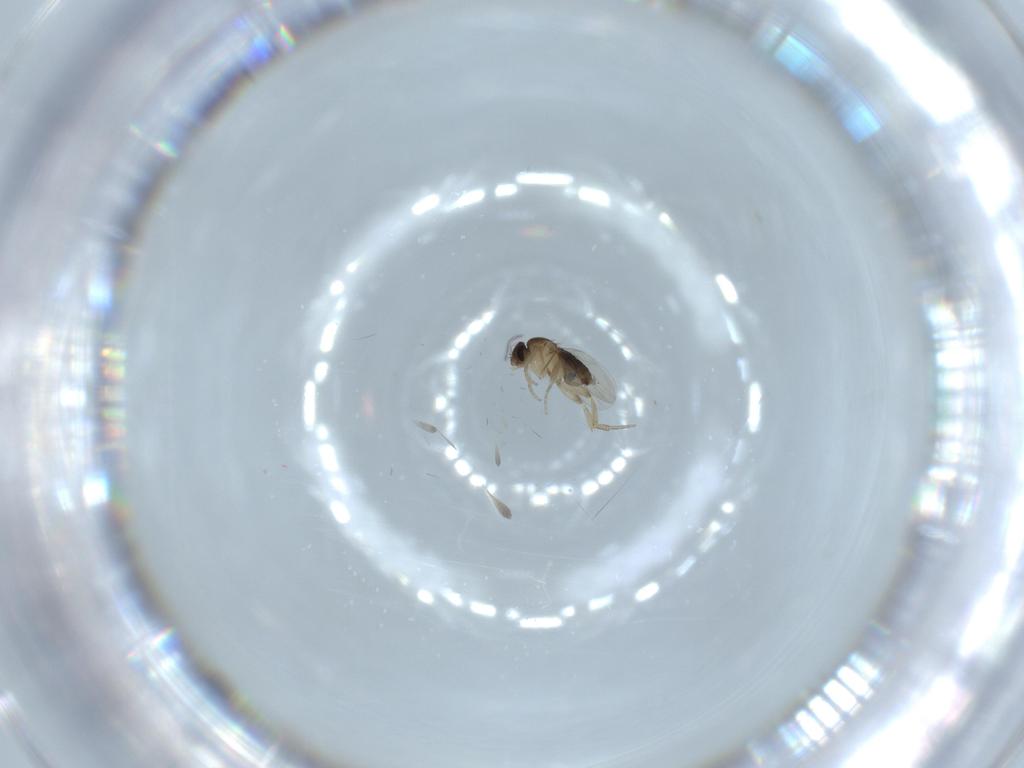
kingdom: Animalia
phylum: Arthropoda
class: Insecta
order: Diptera
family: Phoridae
